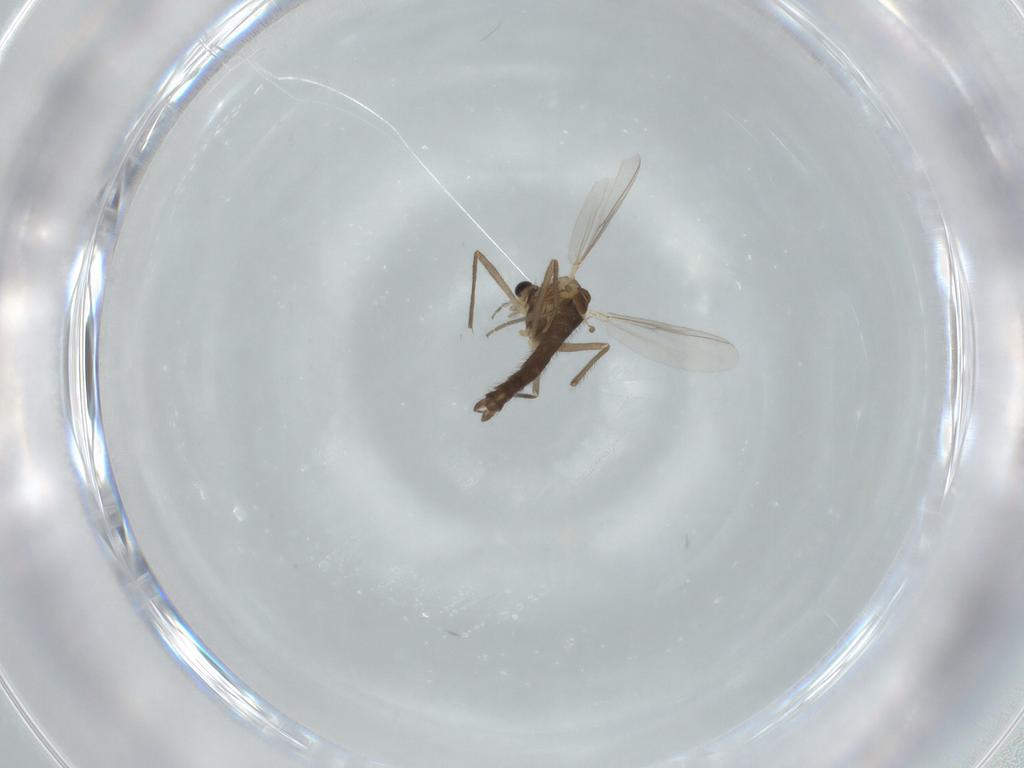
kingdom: Animalia
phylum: Arthropoda
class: Insecta
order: Diptera
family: Chironomidae
